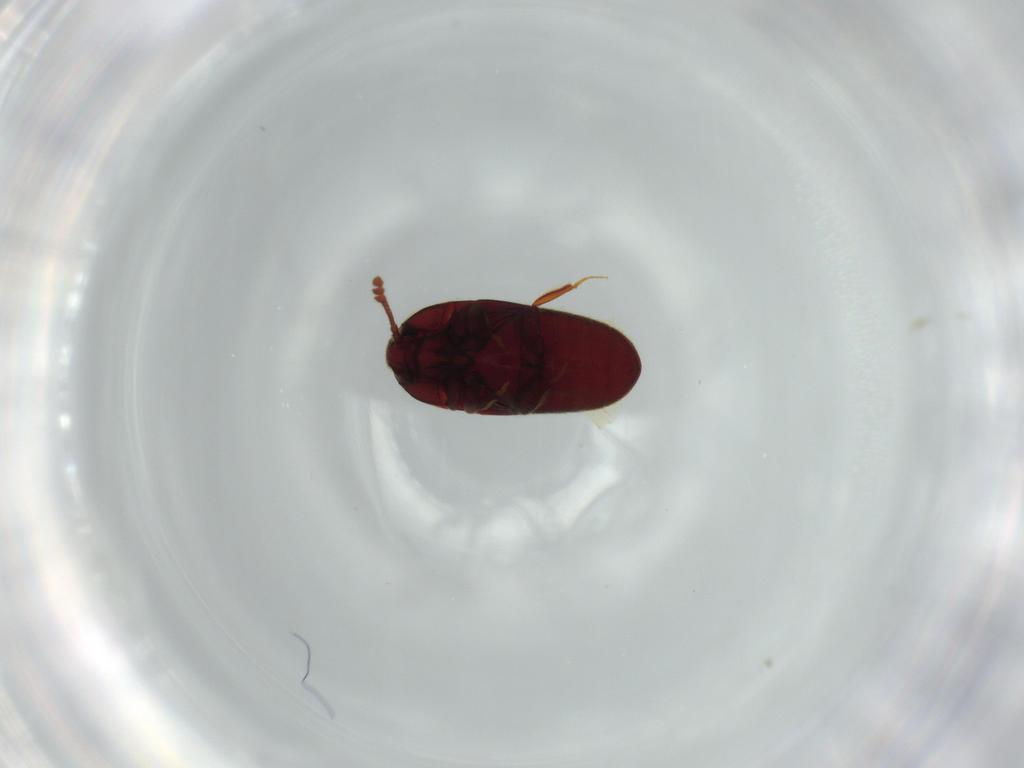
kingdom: Animalia
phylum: Arthropoda
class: Insecta
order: Coleoptera
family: Throscidae
